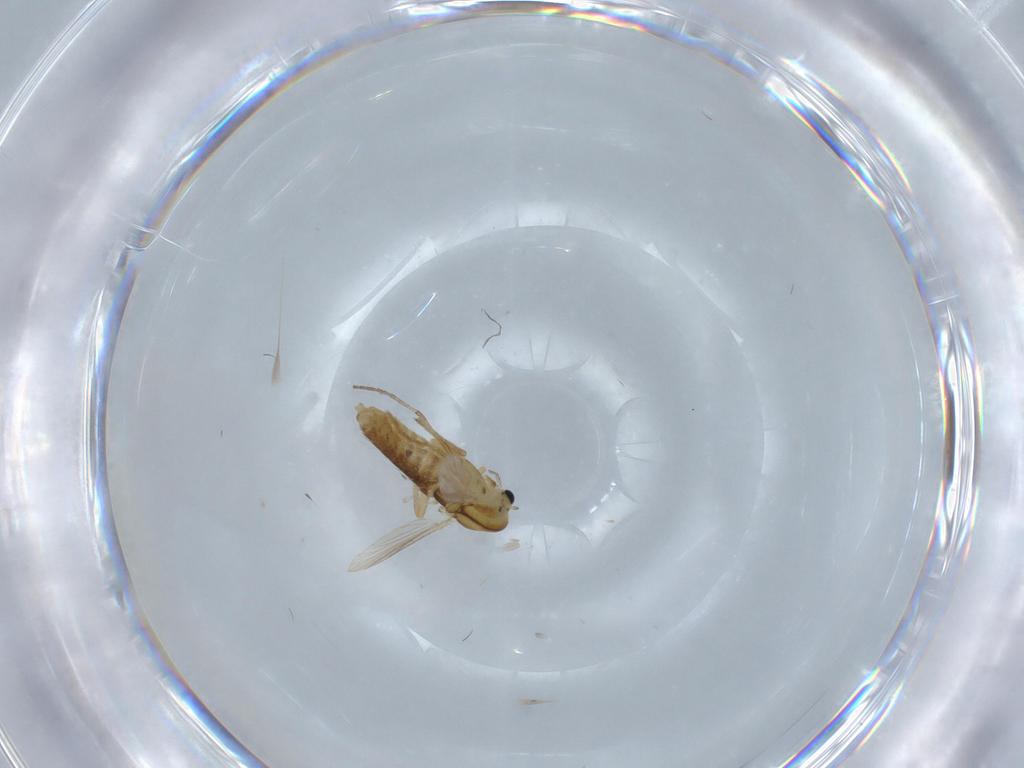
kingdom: Animalia
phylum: Arthropoda
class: Insecta
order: Diptera
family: Chironomidae
